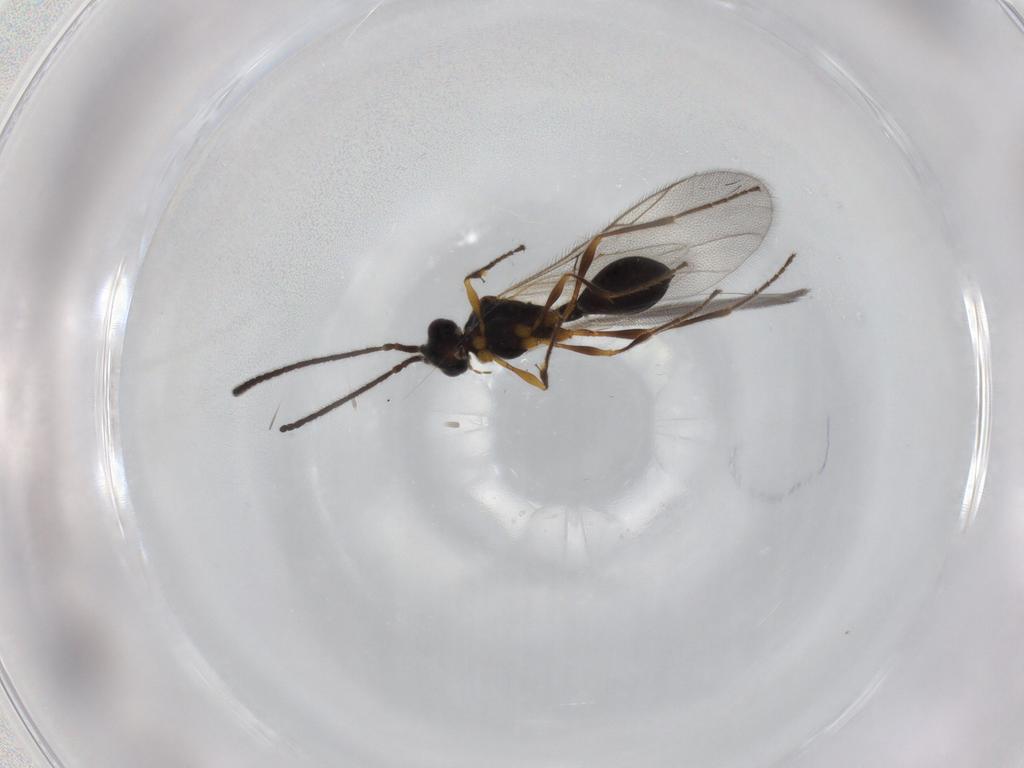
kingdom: Animalia
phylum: Arthropoda
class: Insecta
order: Hymenoptera
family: Diapriidae
